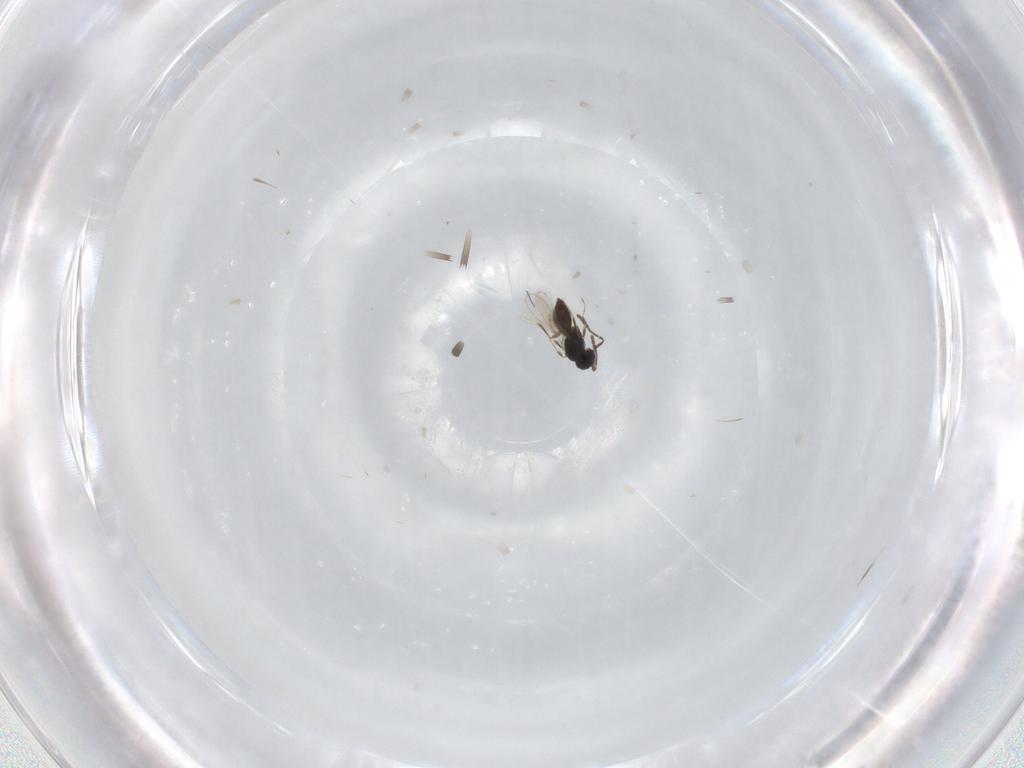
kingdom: Animalia
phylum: Arthropoda
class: Insecta
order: Hymenoptera
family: Scelionidae
